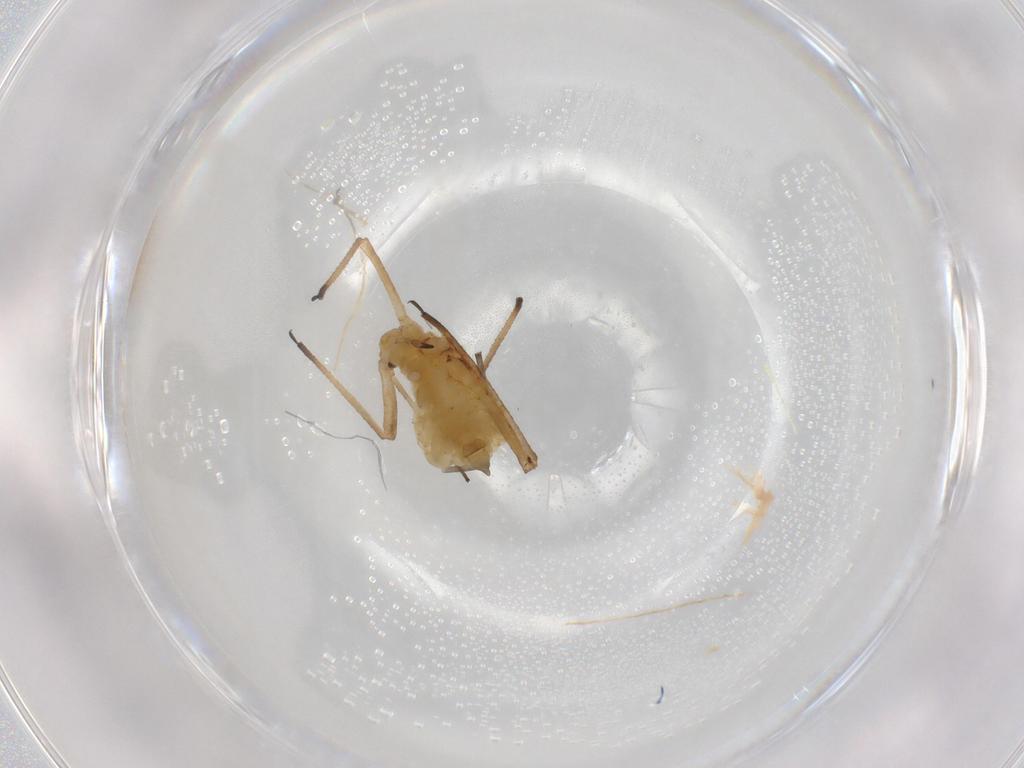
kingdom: Animalia
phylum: Arthropoda
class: Insecta
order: Hemiptera
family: Aphididae
